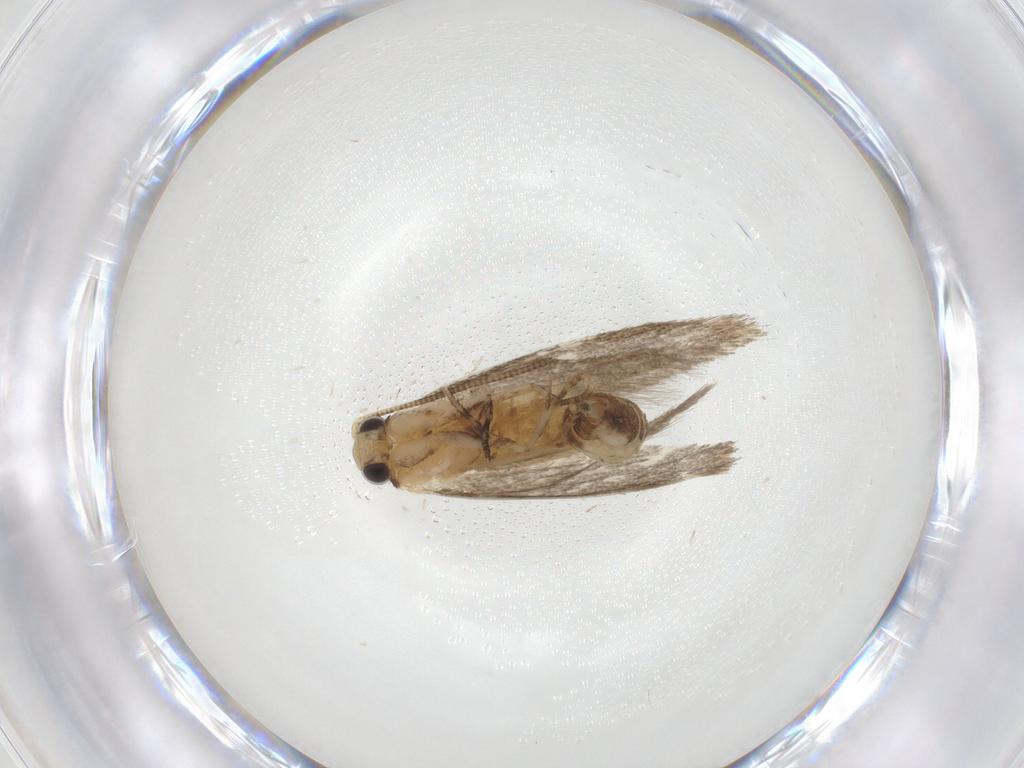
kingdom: Animalia
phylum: Arthropoda
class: Insecta
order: Lepidoptera
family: Tineidae
